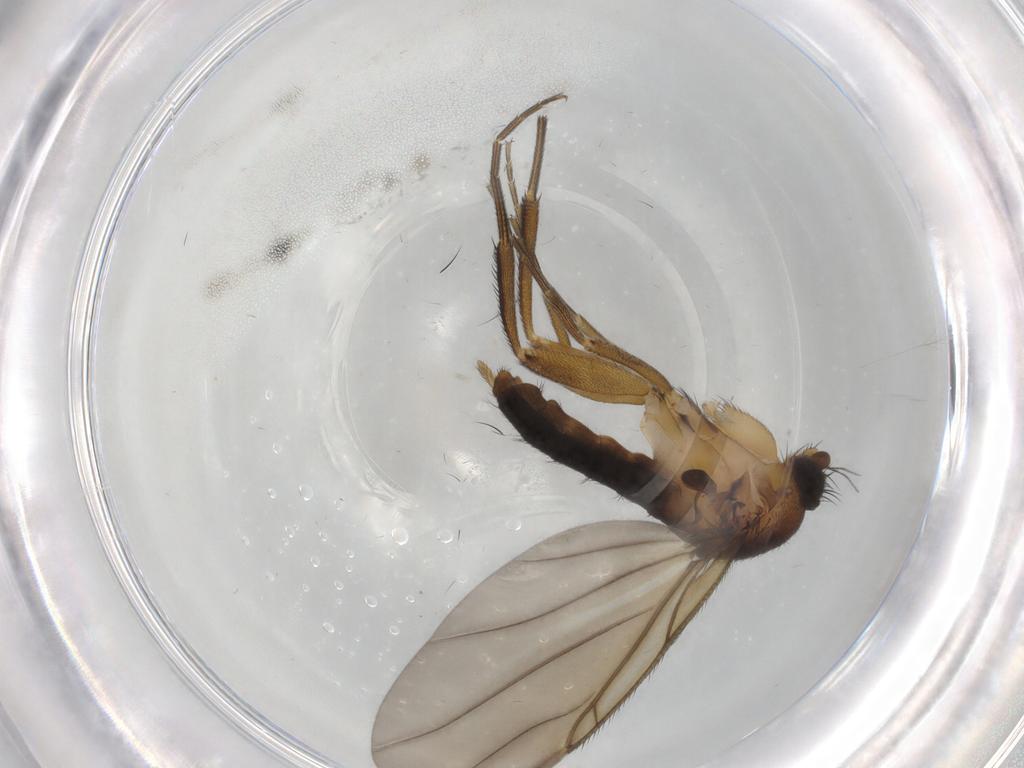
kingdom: Animalia
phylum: Arthropoda
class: Insecta
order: Diptera
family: Phoridae
